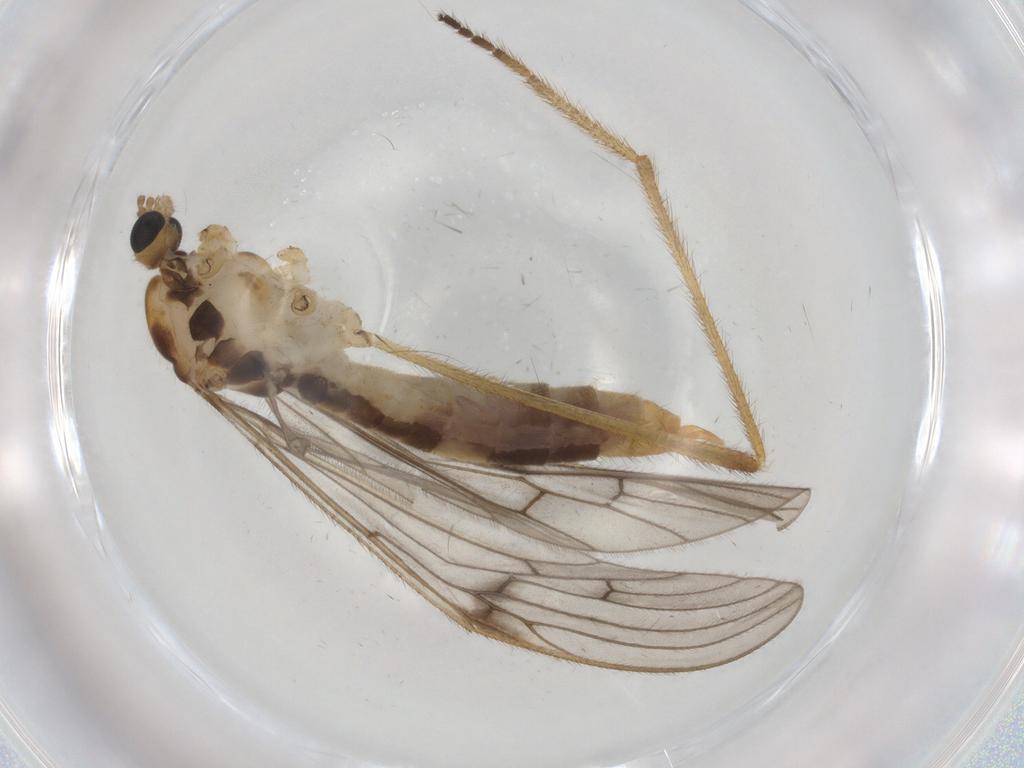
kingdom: Animalia
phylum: Arthropoda
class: Insecta
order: Diptera
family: Limoniidae
